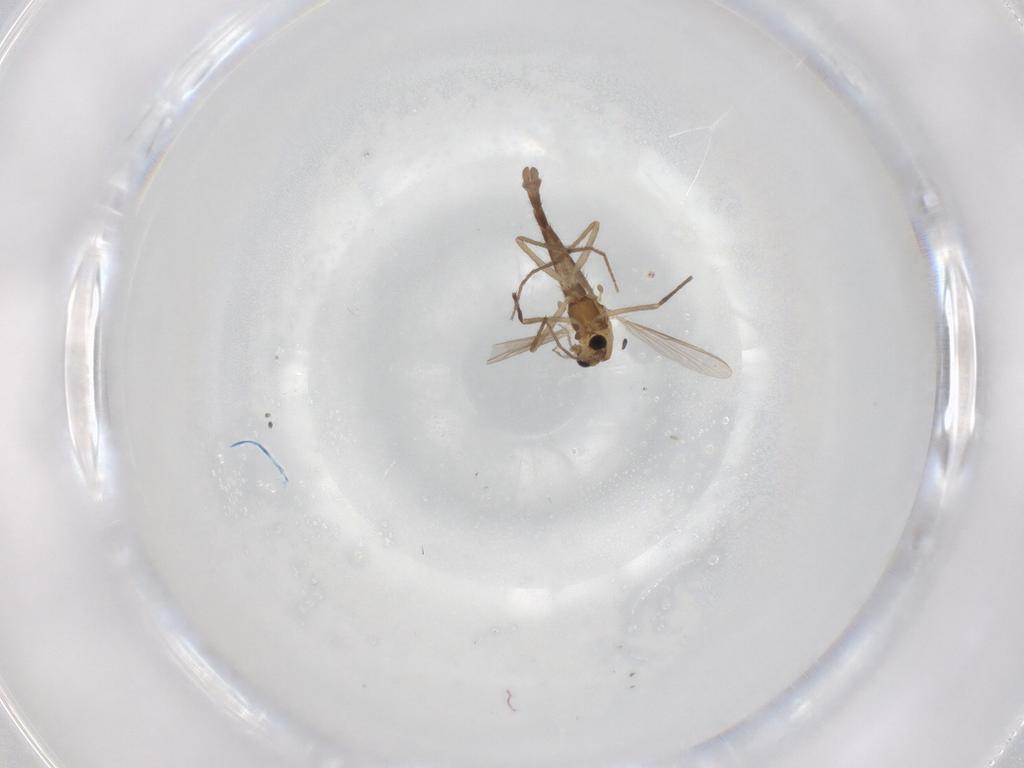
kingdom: Animalia
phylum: Arthropoda
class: Insecta
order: Diptera
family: Chironomidae
